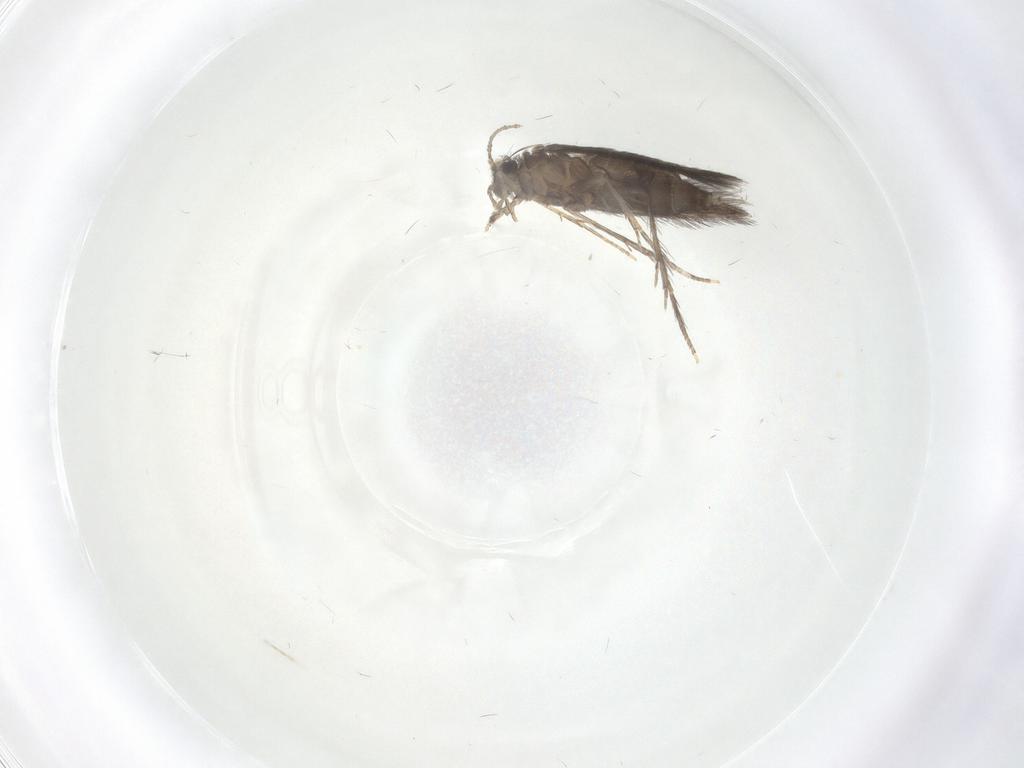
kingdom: Animalia
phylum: Arthropoda
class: Insecta
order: Trichoptera
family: Hydroptilidae
